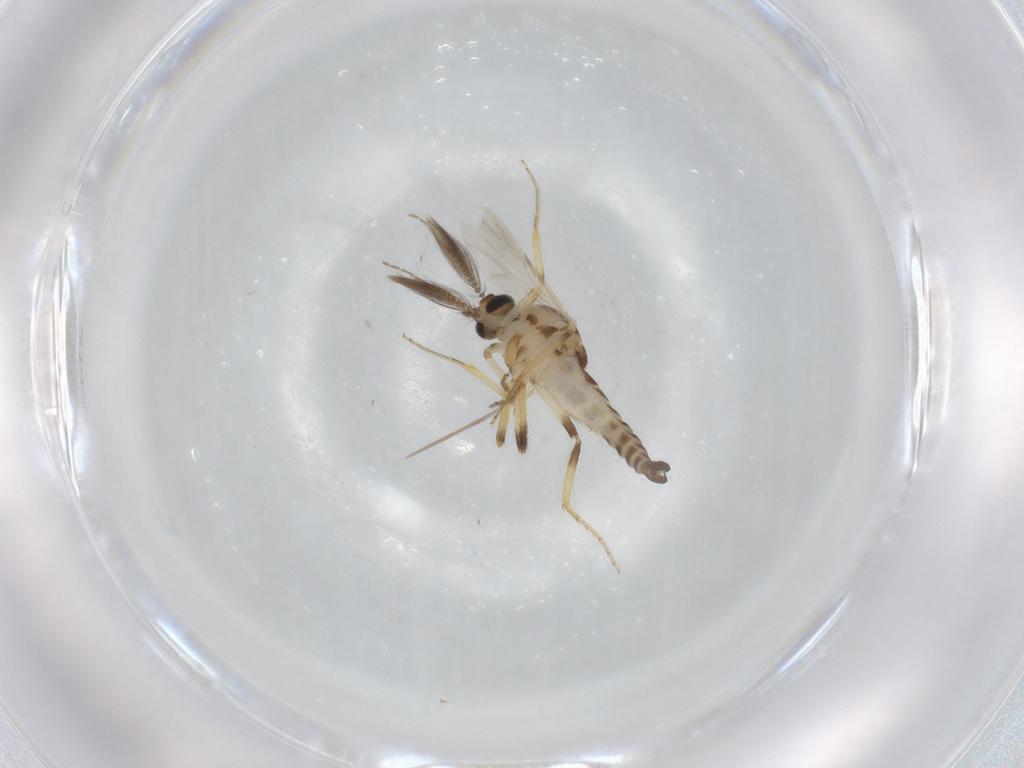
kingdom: Animalia
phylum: Arthropoda
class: Insecta
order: Diptera
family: Ceratopogonidae
